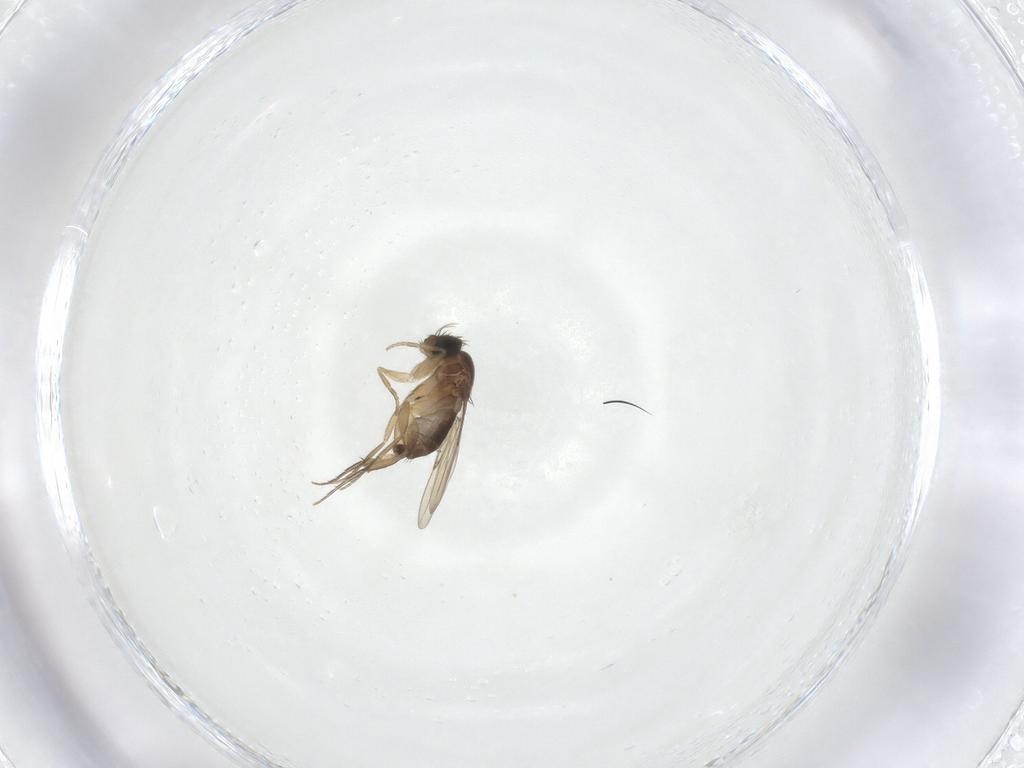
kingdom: Animalia
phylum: Arthropoda
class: Insecta
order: Diptera
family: Phoridae
